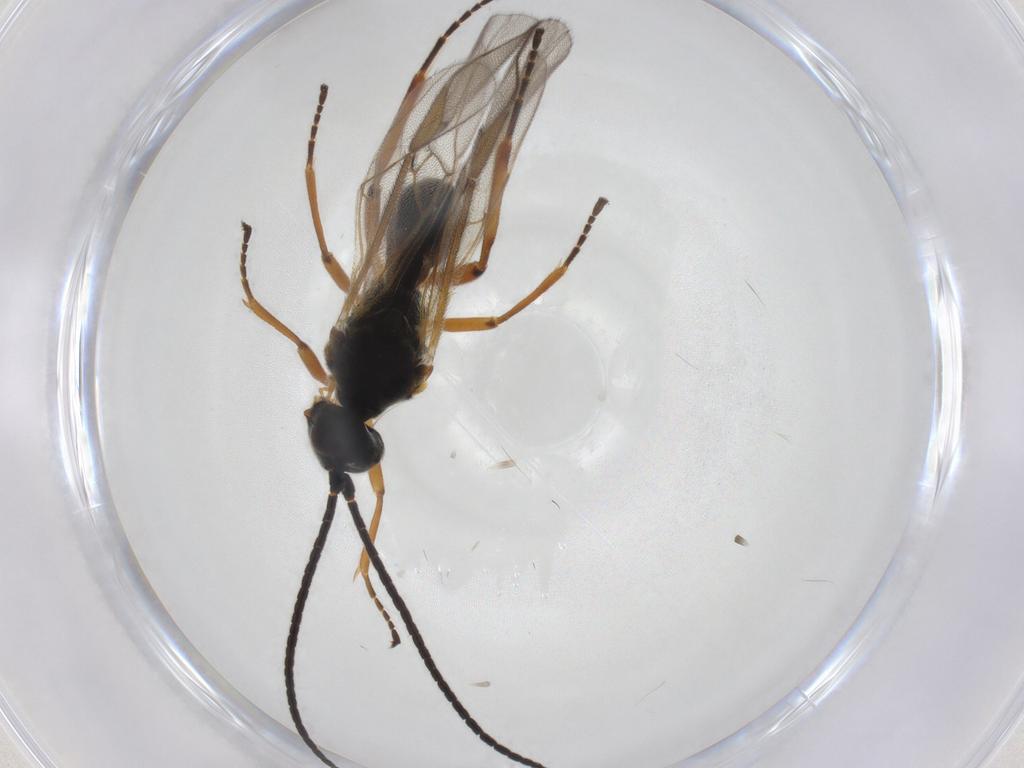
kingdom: Animalia
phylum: Arthropoda
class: Insecta
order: Hymenoptera
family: Braconidae
